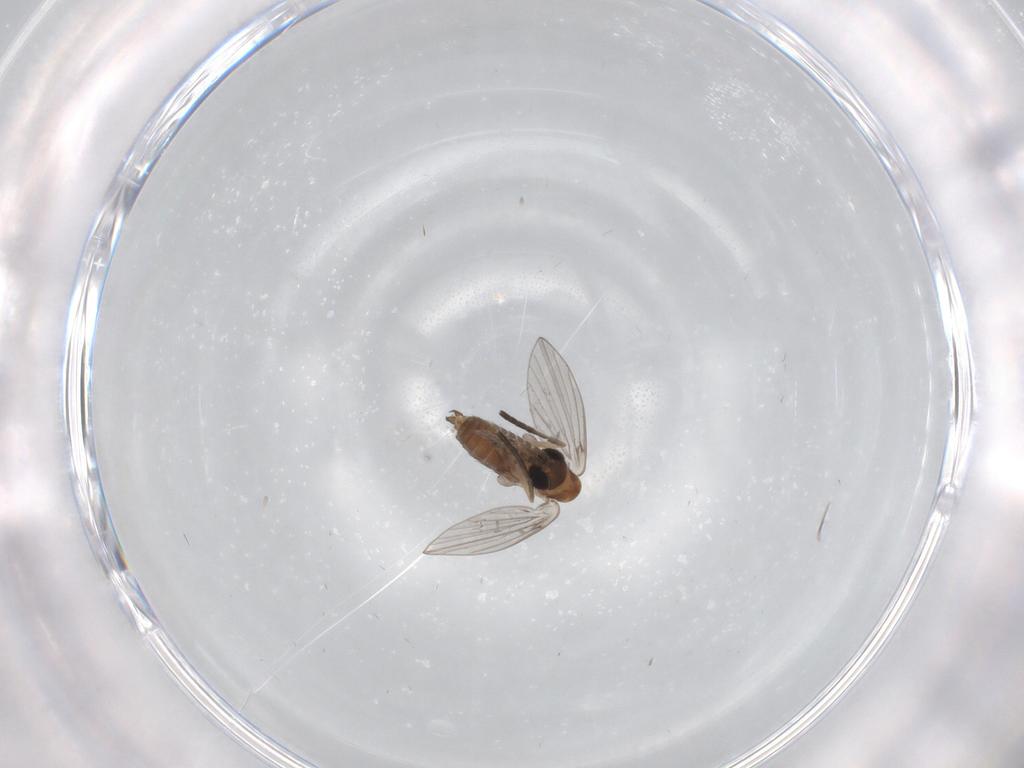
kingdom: Animalia
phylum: Arthropoda
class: Insecta
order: Diptera
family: Psychodidae
